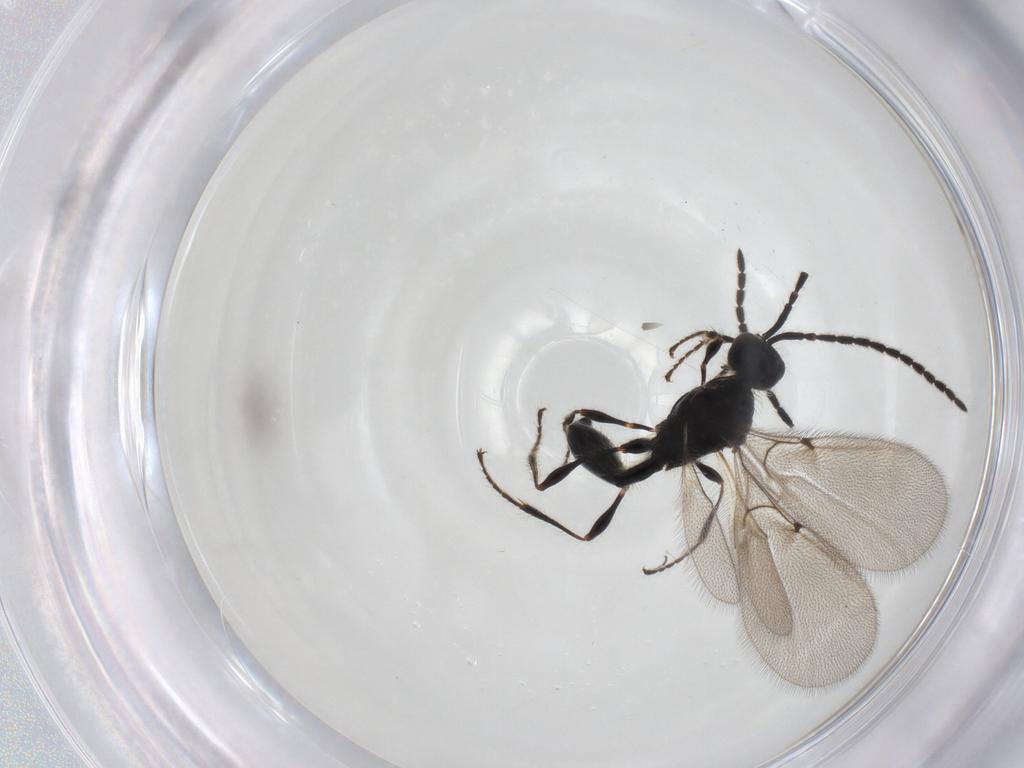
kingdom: Animalia
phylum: Arthropoda
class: Insecta
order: Hymenoptera
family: Diapriidae
